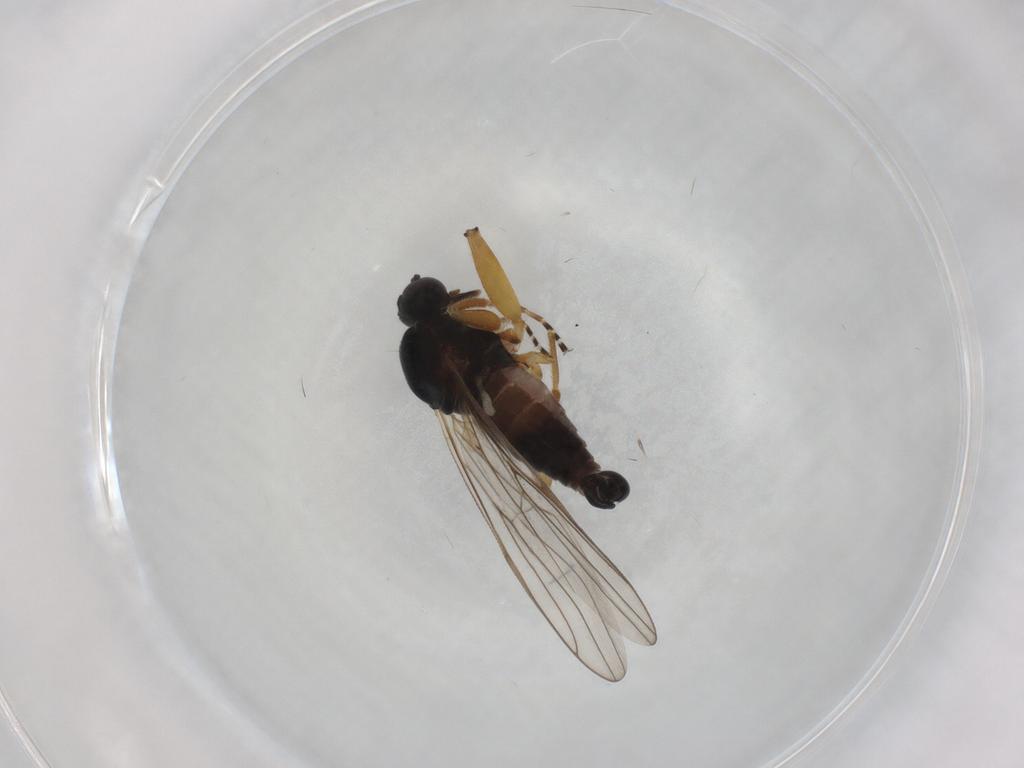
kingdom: Animalia
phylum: Arthropoda
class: Insecta
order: Diptera
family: Hybotidae
